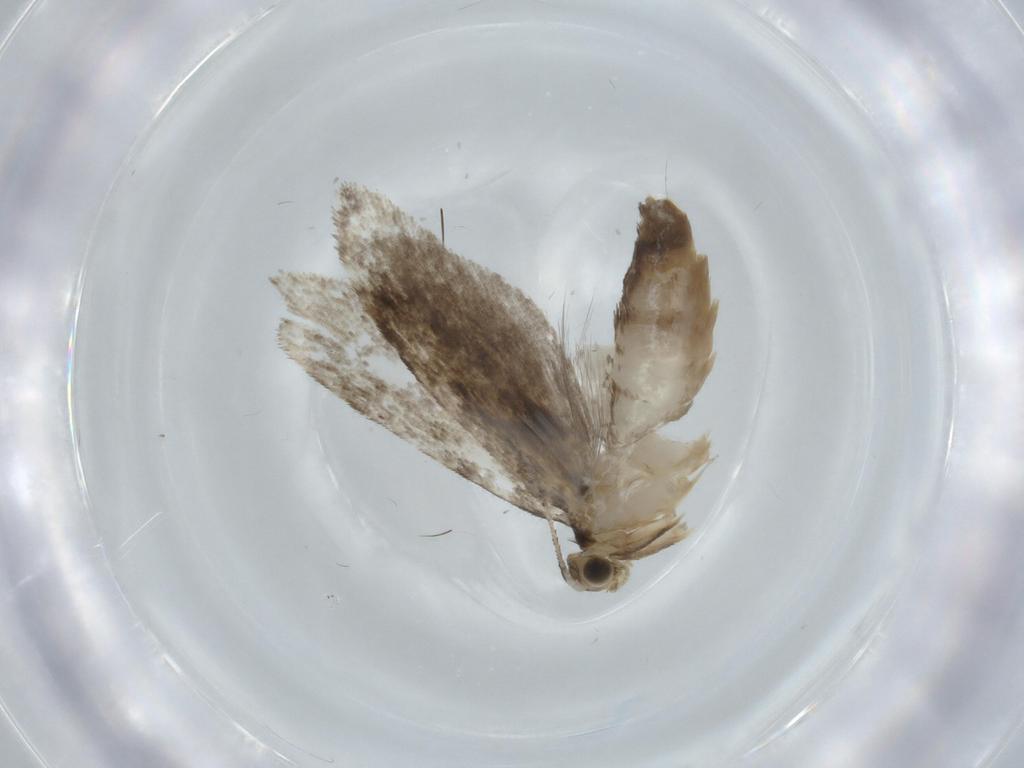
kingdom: Animalia
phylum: Arthropoda
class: Insecta
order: Lepidoptera
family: Tineidae
